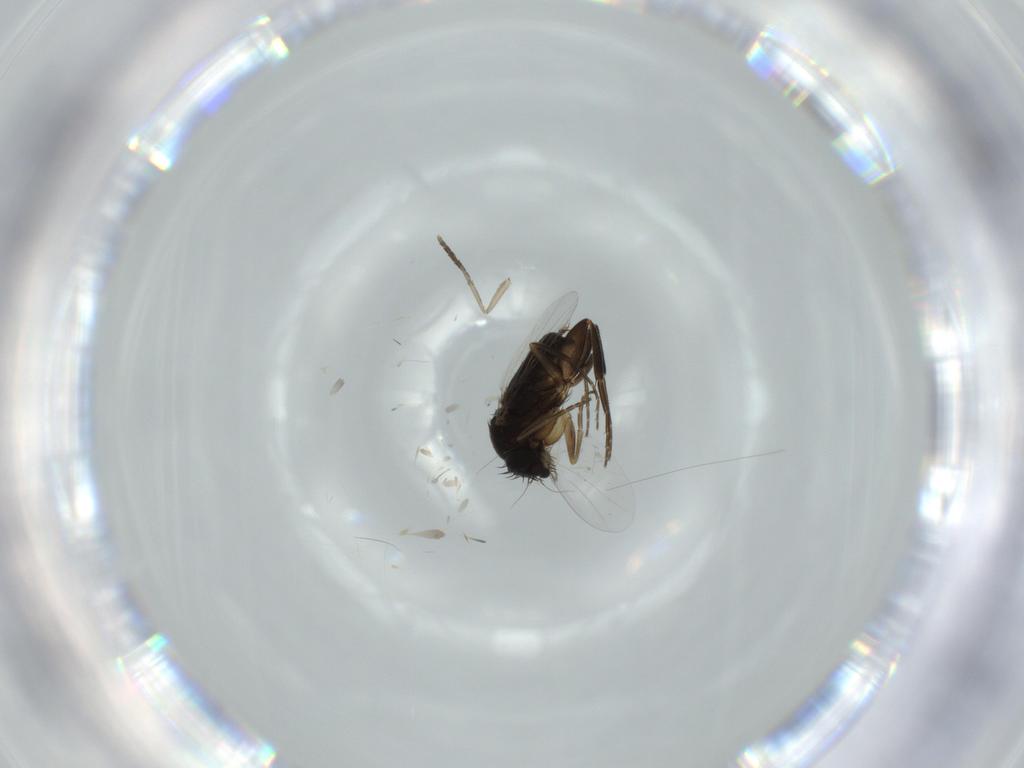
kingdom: Animalia
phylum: Arthropoda
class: Insecta
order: Diptera
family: Phoridae
